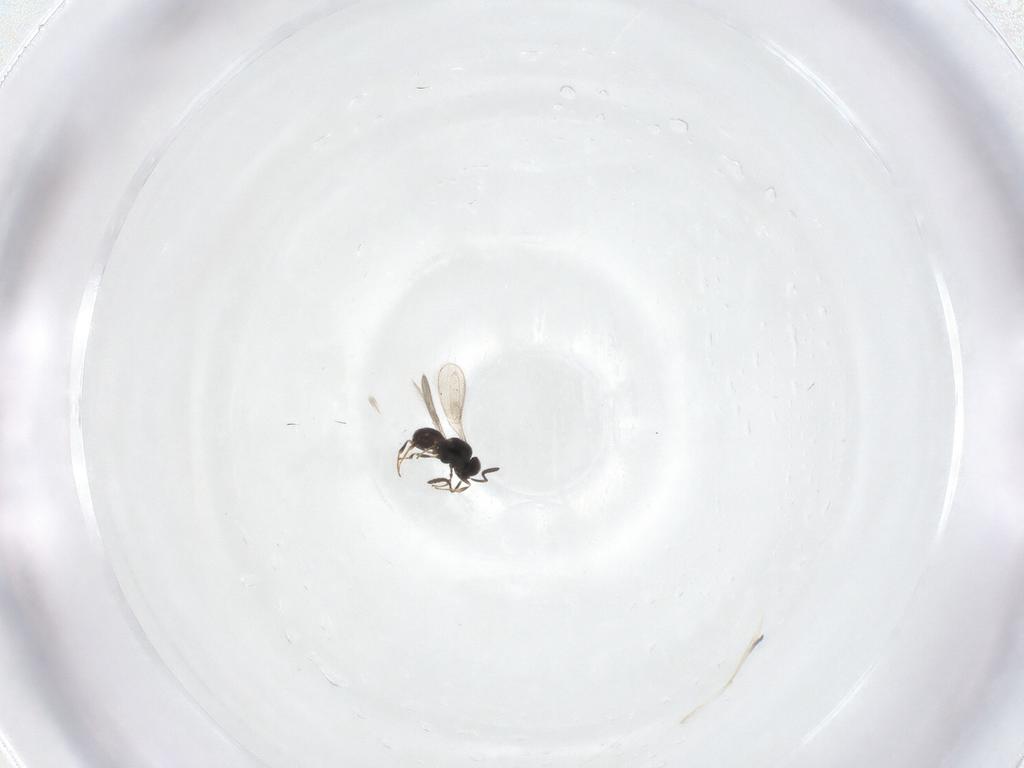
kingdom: Animalia
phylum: Arthropoda
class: Insecta
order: Hymenoptera
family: Scelionidae
